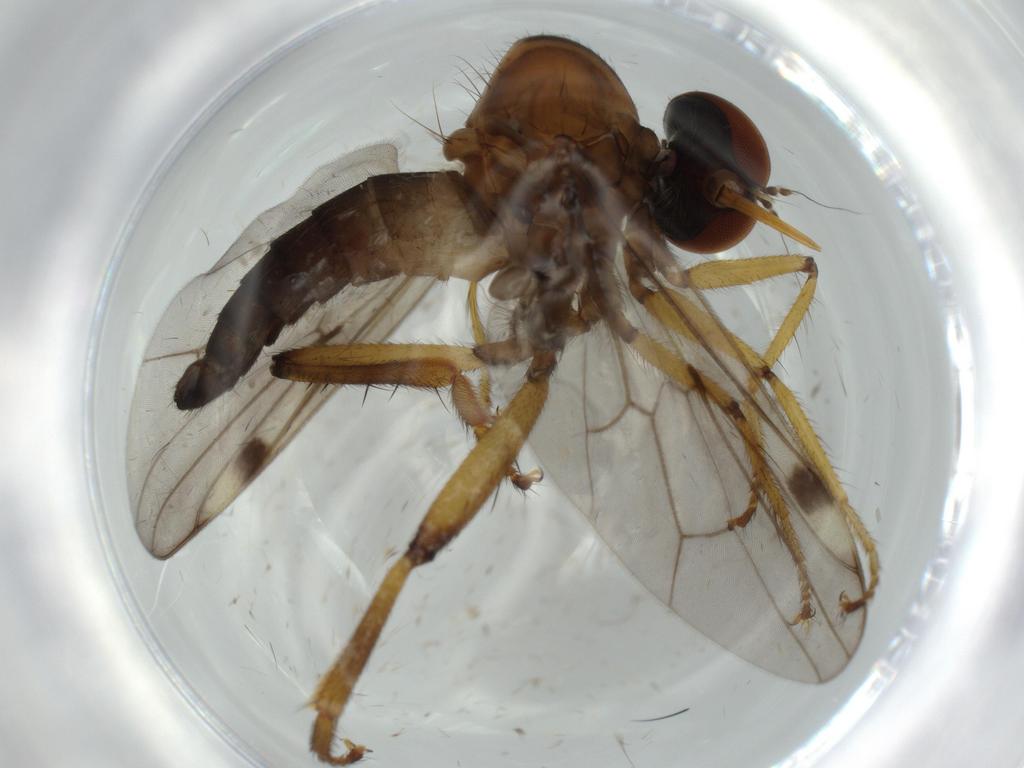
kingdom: Animalia
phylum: Arthropoda
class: Insecta
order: Diptera
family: Hybotidae
